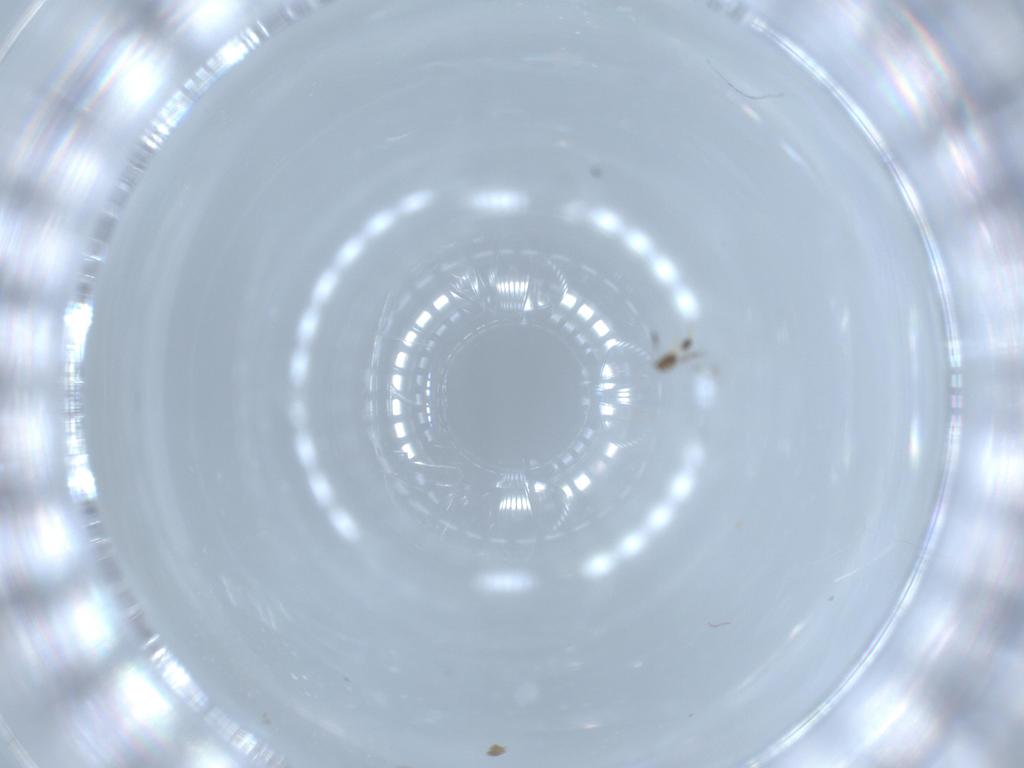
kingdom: Animalia
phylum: Arthropoda
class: Insecta
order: Hymenoptera
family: Mymarommatidae
